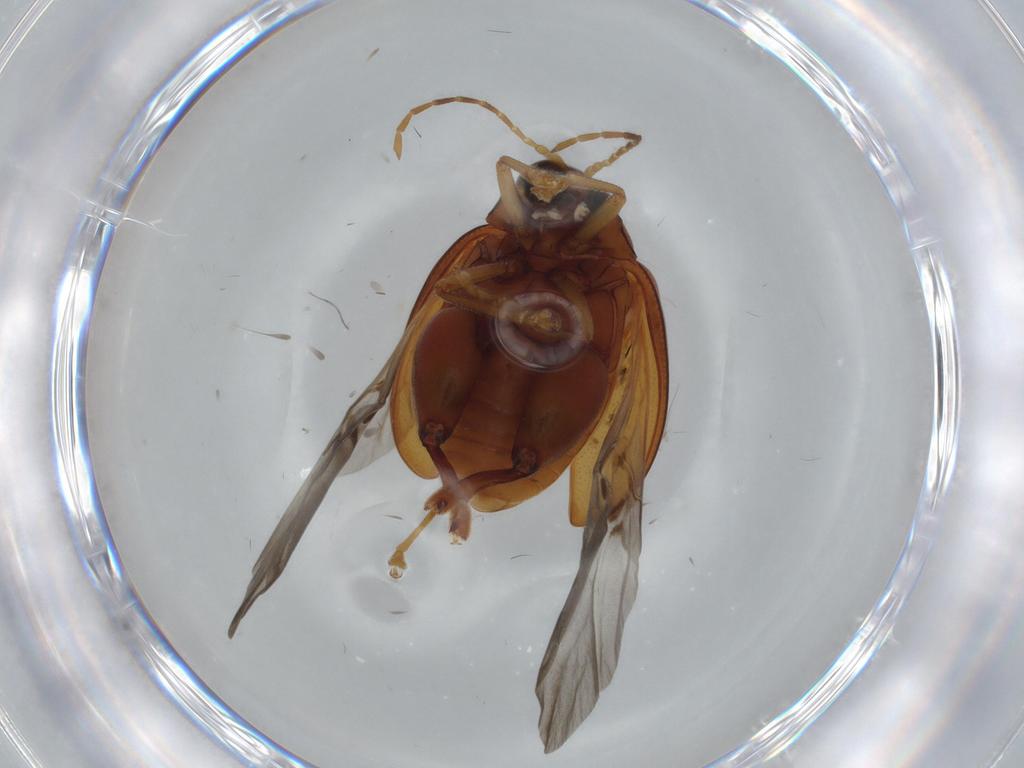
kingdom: Animalia
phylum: Arthropoda
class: Insecta
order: Coleoptera
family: Chrysomelidae
